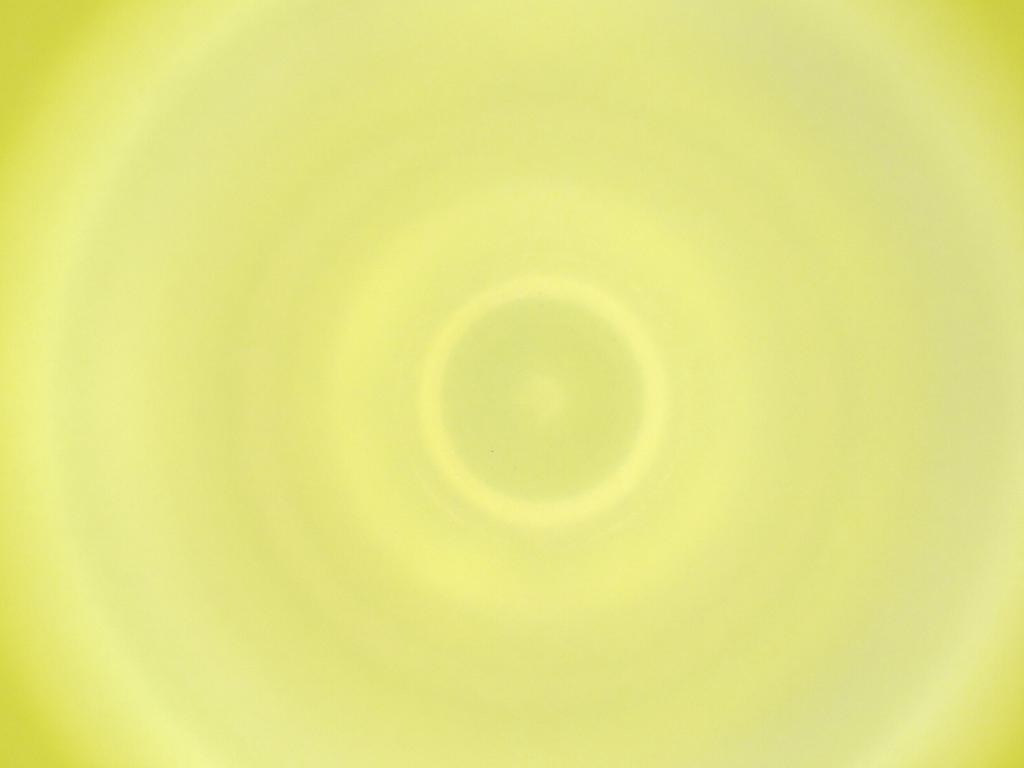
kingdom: Animalia
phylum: Arthropoda
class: Insecta
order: Diptera
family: Cecidomyiidae
